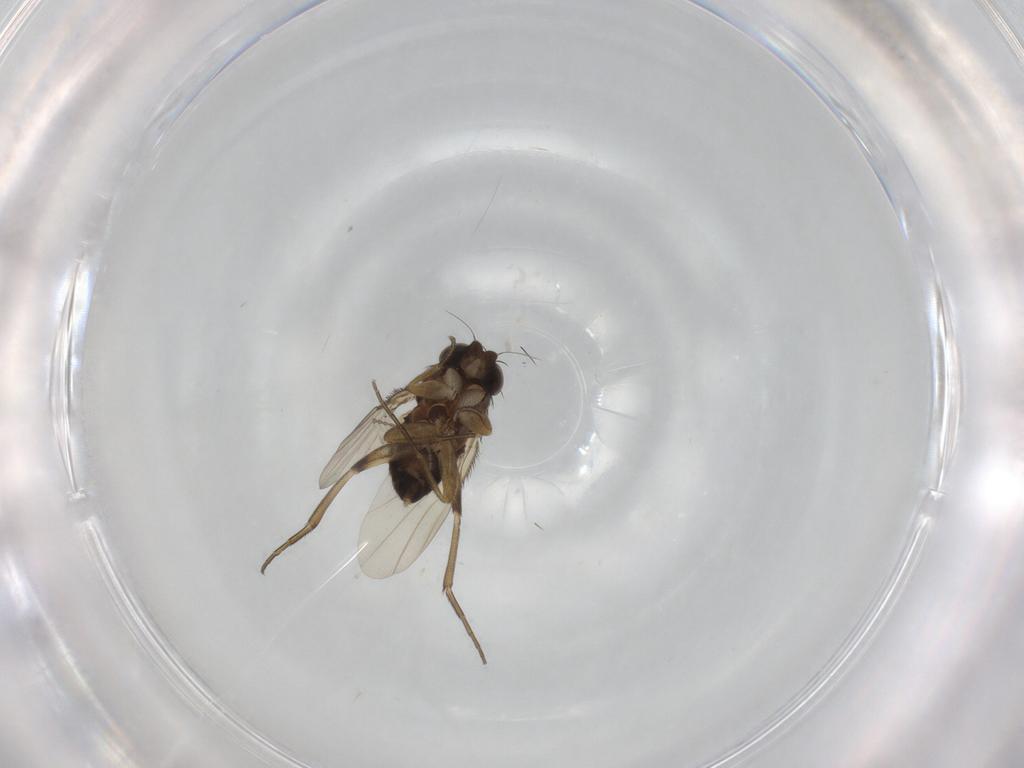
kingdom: Animalia
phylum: Arthropoda
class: Insecta
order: Diptera
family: Phoridae
